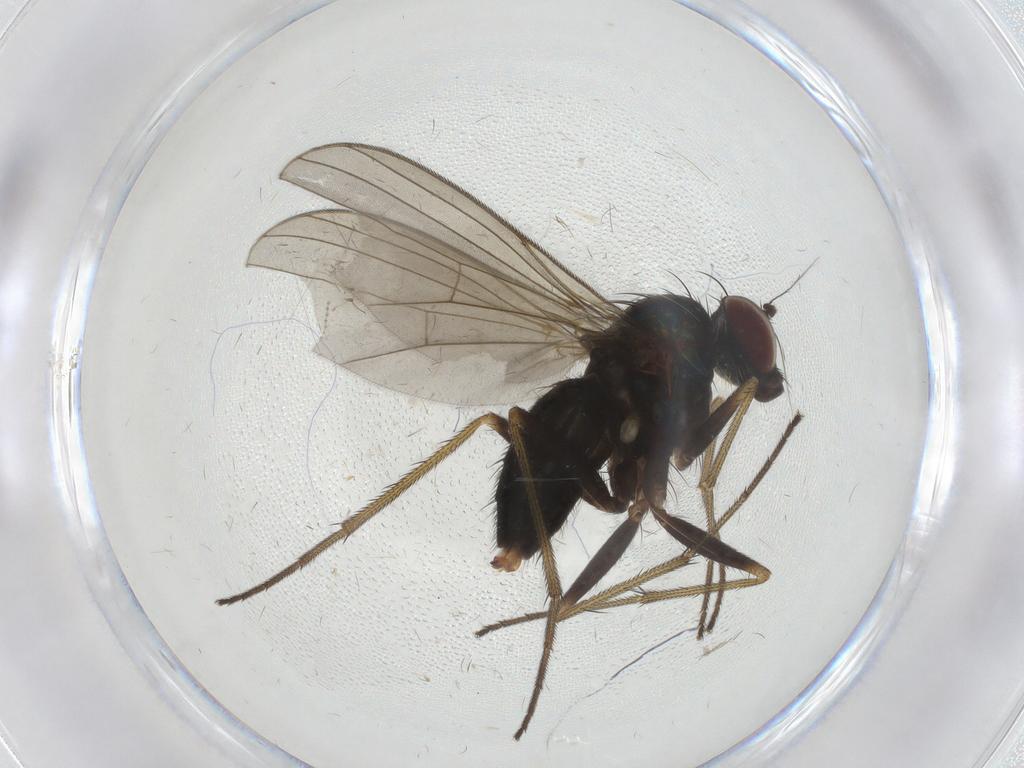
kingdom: Animalia
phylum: Arthropoda
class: Insecta
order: Diptera
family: Dolichopodidae
